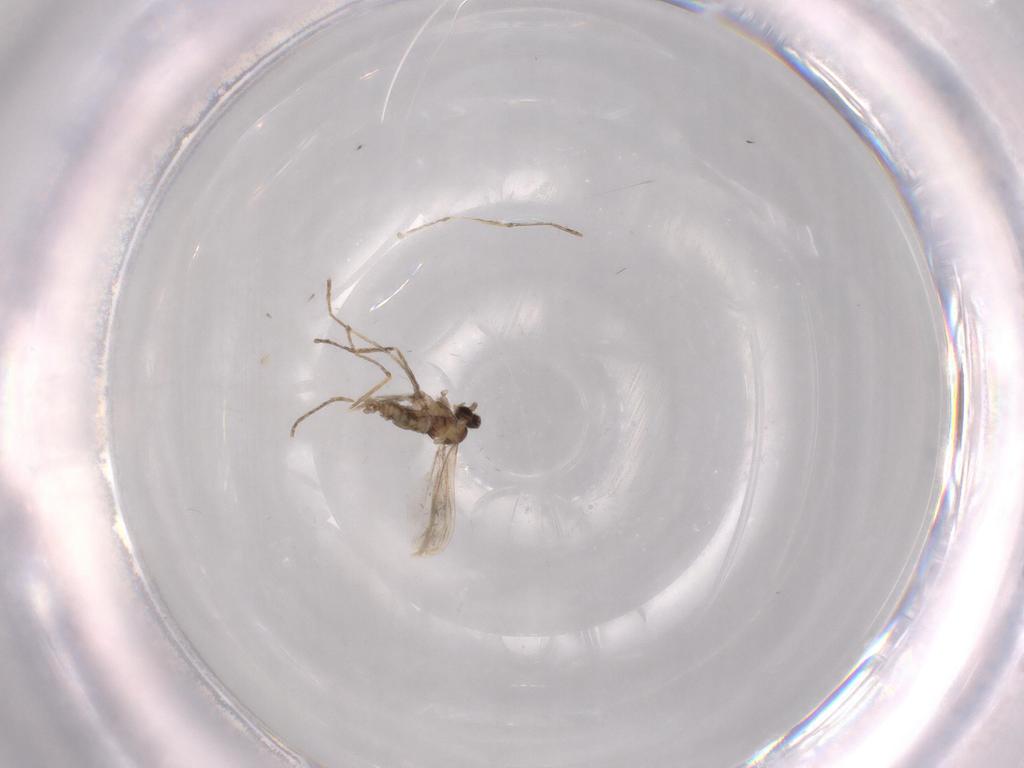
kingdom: Animalia
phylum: Arthropoda
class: Insecta
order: Diptera
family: Cecidomyiidae
